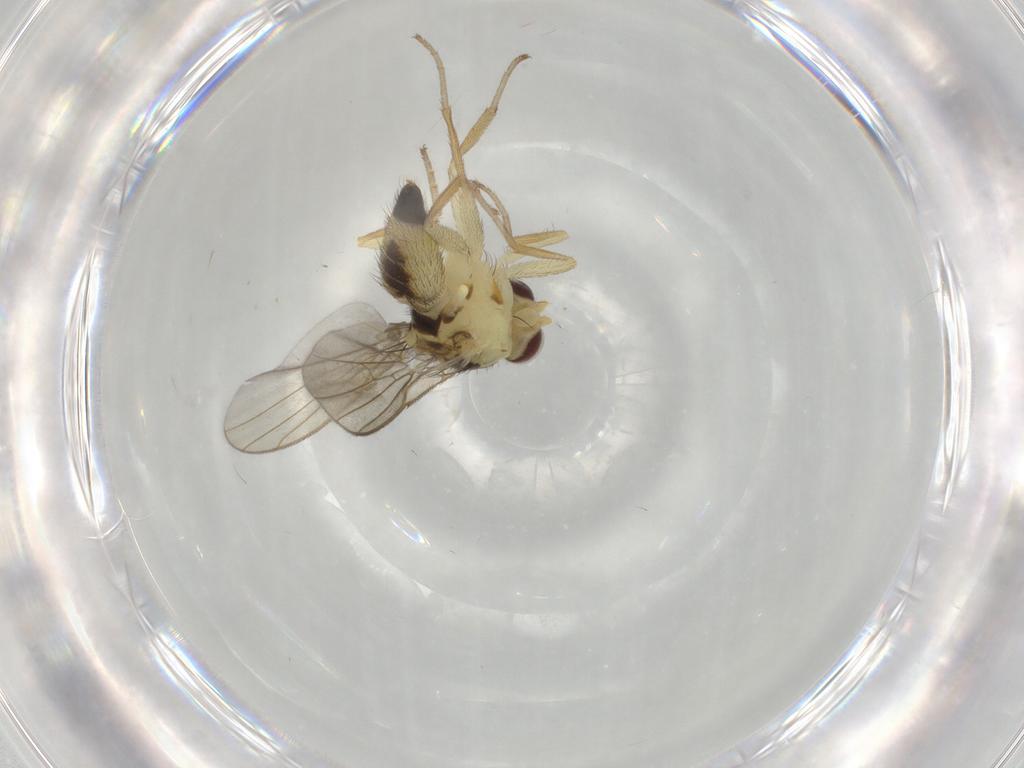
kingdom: Animalia
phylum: Arthropoda
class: Insecta
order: Diptera
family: Agromyzidae
